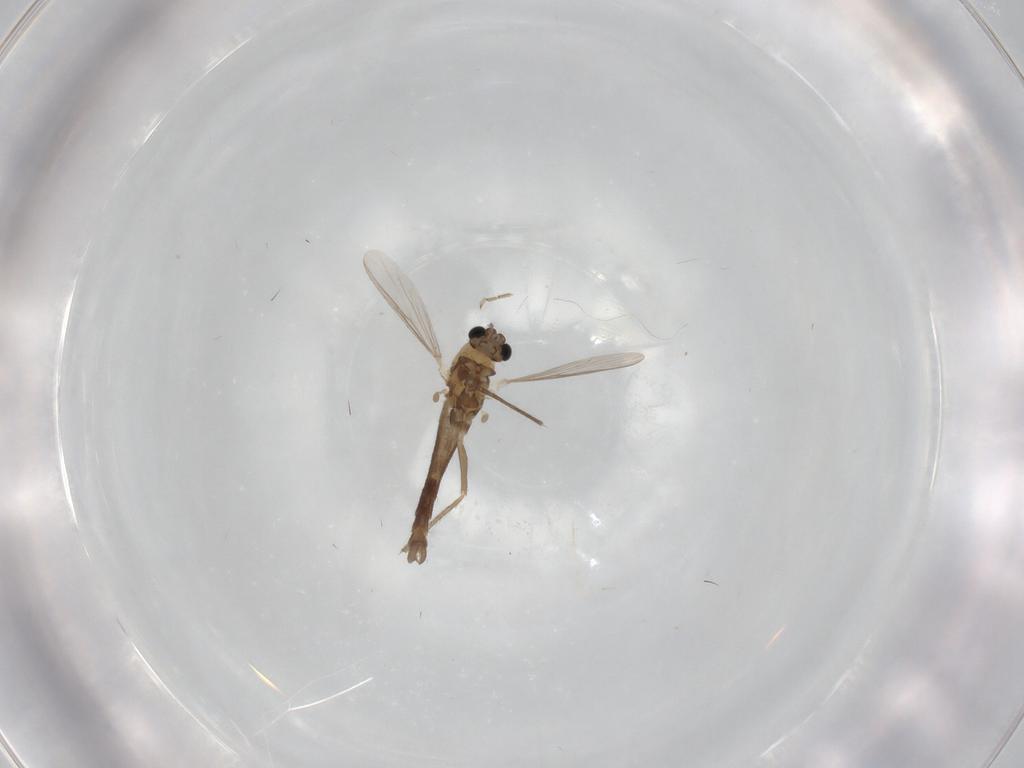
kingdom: Animalia
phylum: Arthropoda
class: Insecta
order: Diptera
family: Chironomidae
